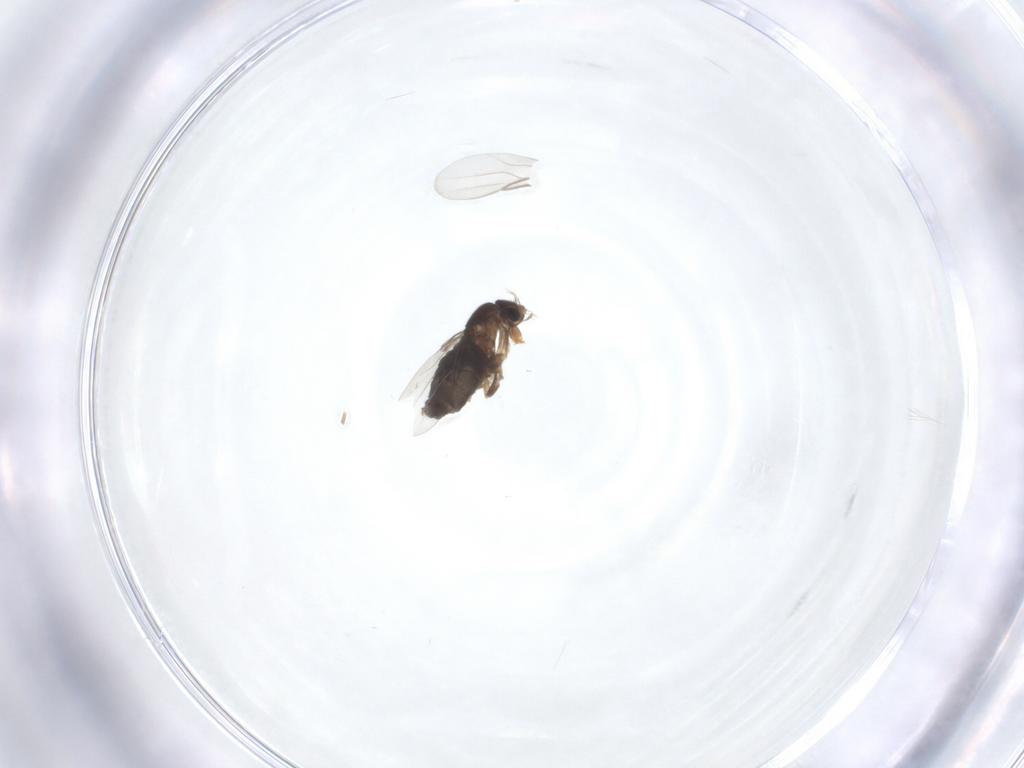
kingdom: Animalia
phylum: Arthropoda
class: Insecta
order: Diptera
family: Phoridae
